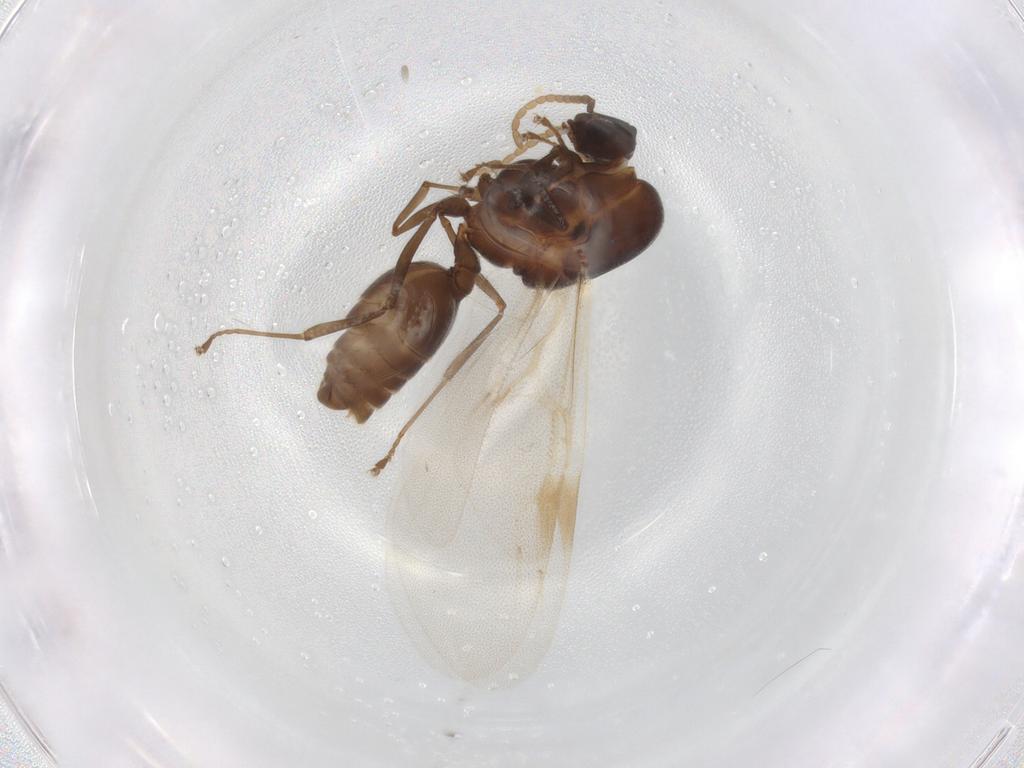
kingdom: Animalia
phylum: Arthropoda
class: Insecta
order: Hymenoptera
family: Formicidae
